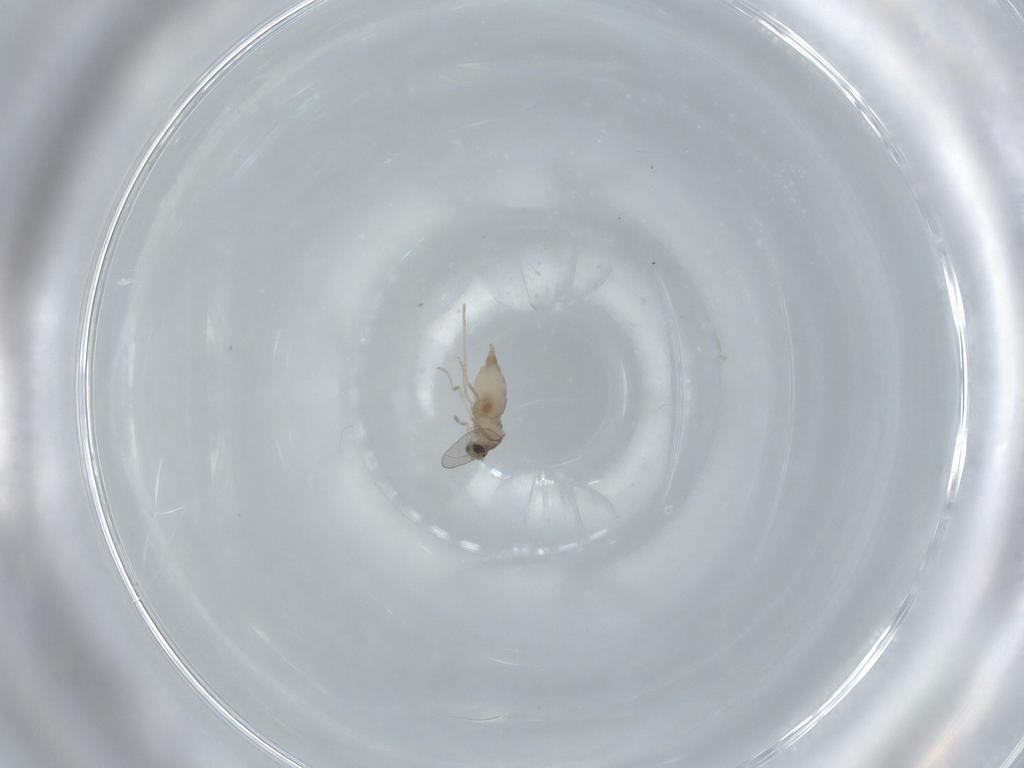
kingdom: Animalia
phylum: Arthropoda
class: Insecta
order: Diptera
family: Cecidomyiidae
